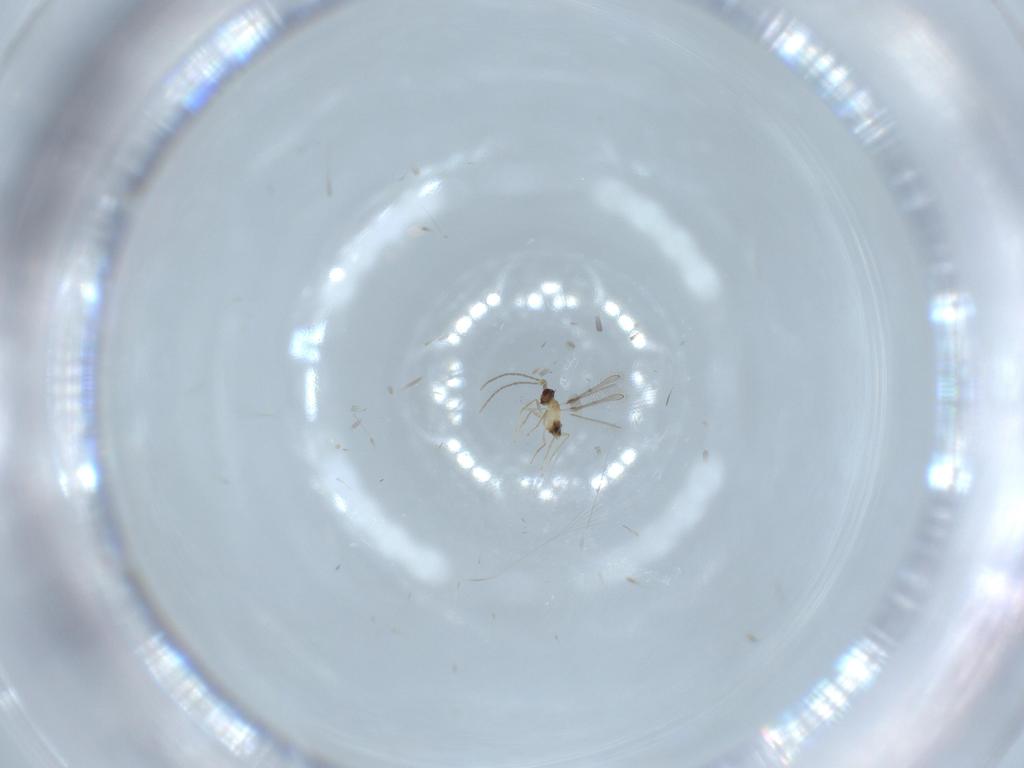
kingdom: Animalia
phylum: Arthropoda
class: Insecta
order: Hymenoptera
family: Mymaridae
